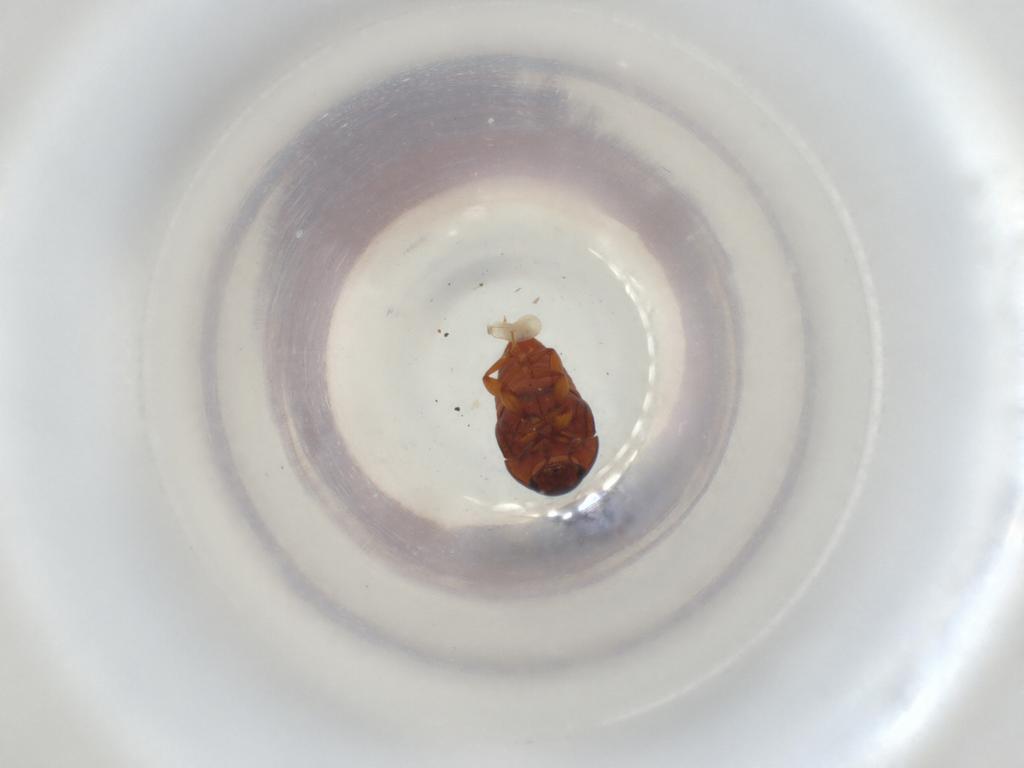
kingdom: Animalia
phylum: Arthropoda
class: Insecta
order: Coleoptera
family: Nitidulidae
